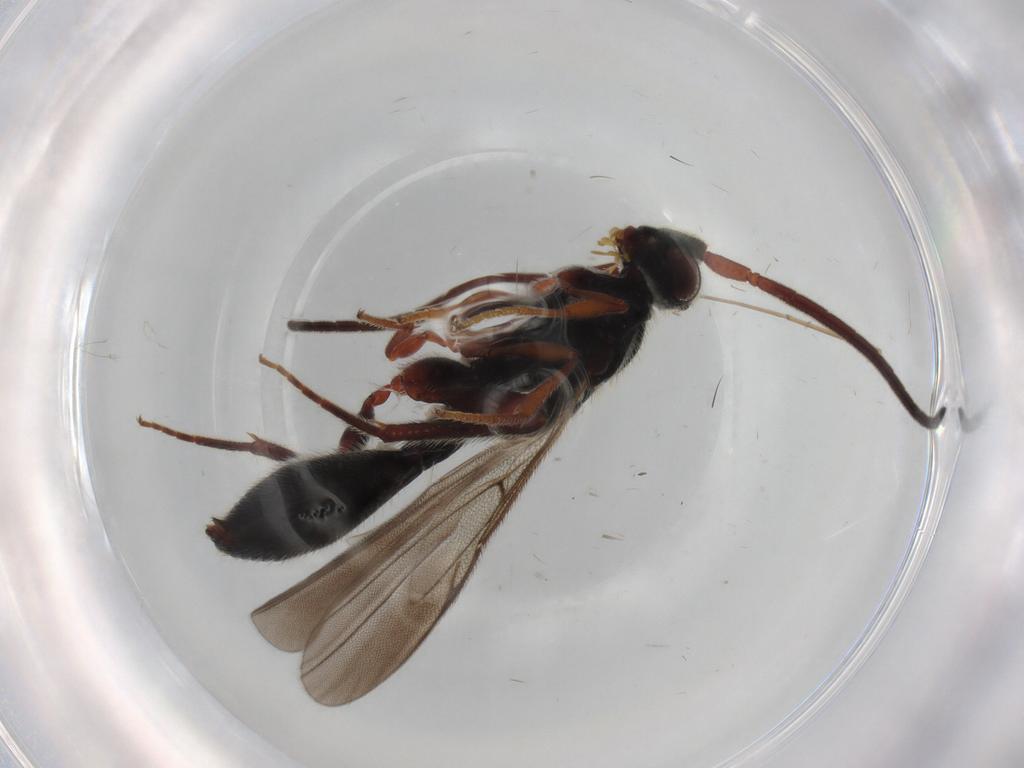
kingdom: Animalia
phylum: Arthropoda
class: Insecta
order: Hymenoptera
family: Diapriidae
